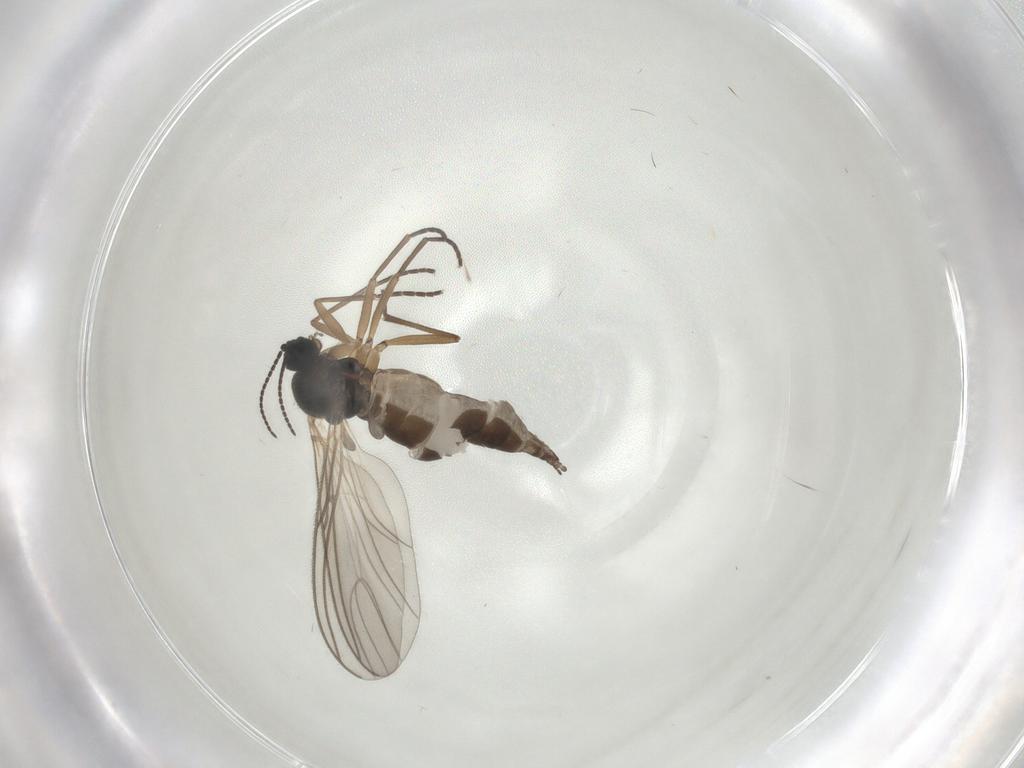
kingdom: Animalia
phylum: Arthropoda
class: Insecta
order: Diptera
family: Sciaridae
